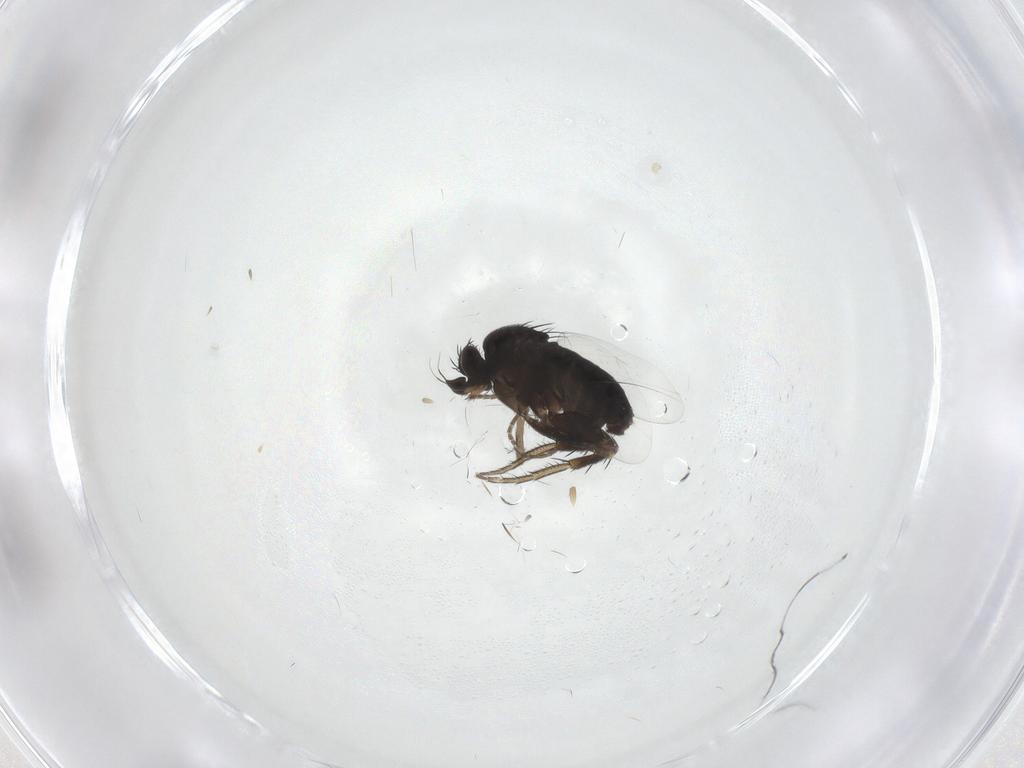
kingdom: Animalia
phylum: Arthropoda
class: Insecta
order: Diptera
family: Phoridae
